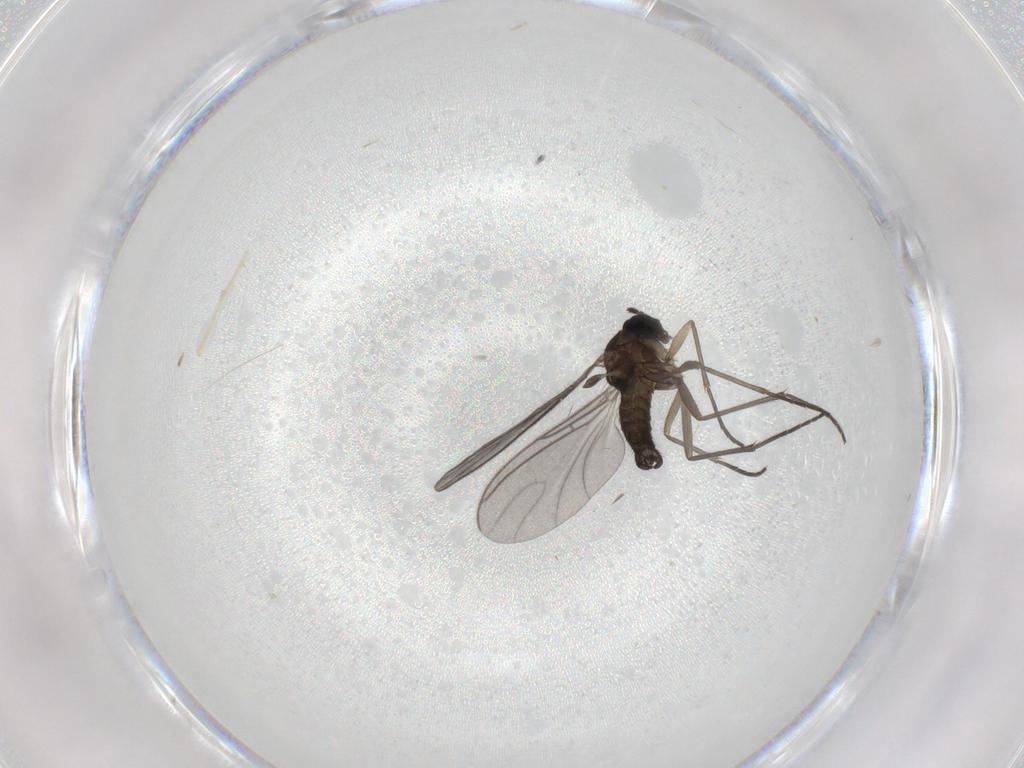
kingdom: Animalia
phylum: Arthropoda
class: Insecta
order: Diptera
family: Sciaridae
